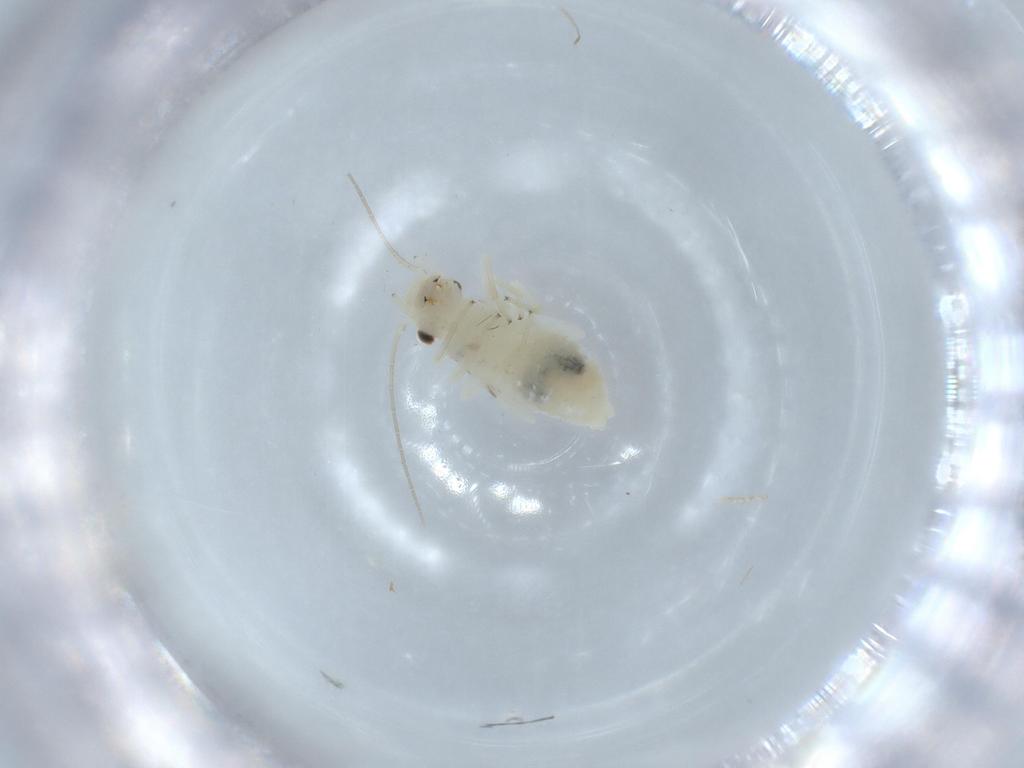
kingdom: Animalia
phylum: Arthropoda
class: Insecta
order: Psocodea
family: Caeciliusidae
